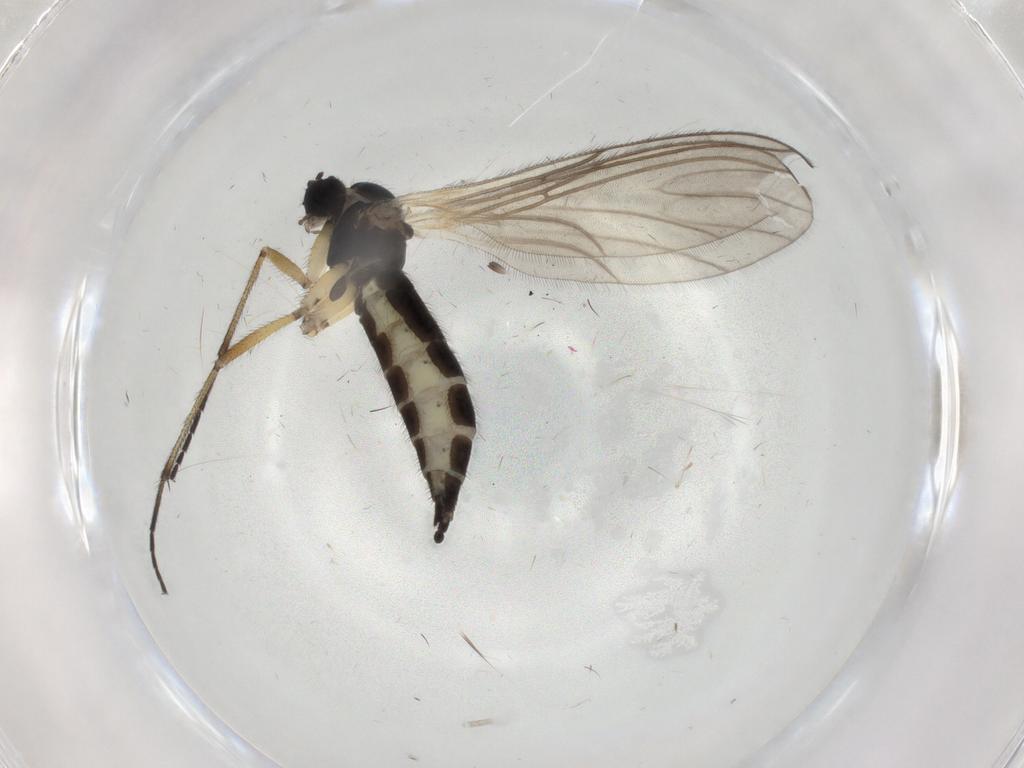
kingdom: Animalia
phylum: Arthropoda
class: Insecta
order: Diptera
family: Sciaridae
